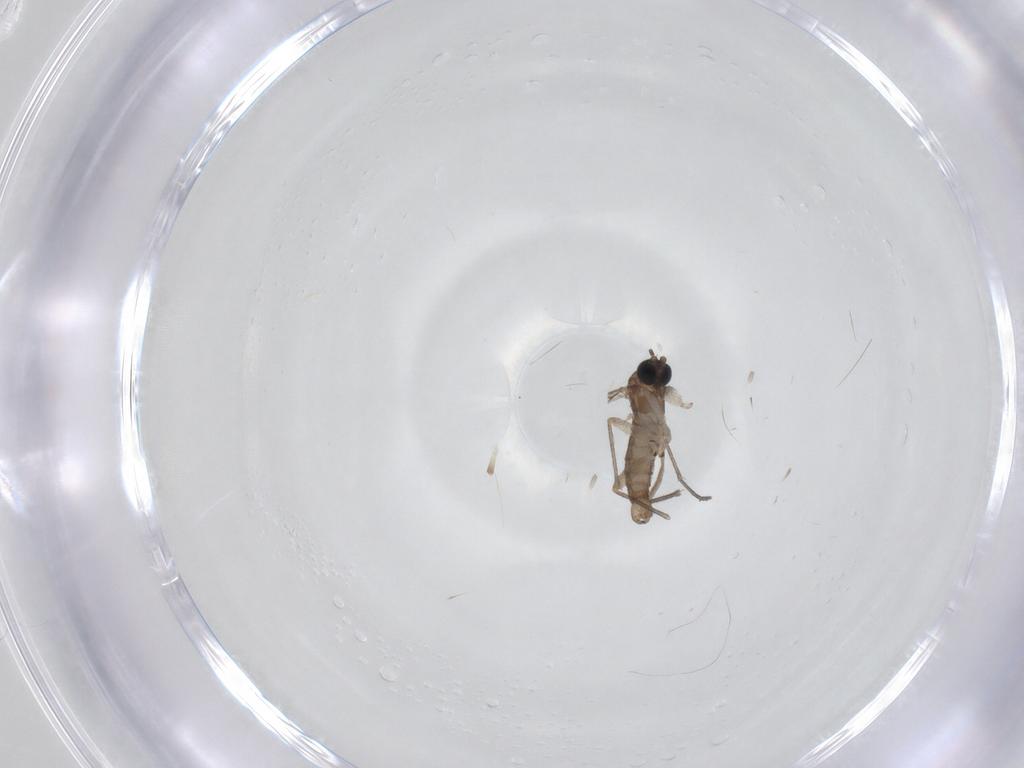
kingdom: Animalia
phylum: Arthropoda
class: Insecta
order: Diptera
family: Sciaridae
